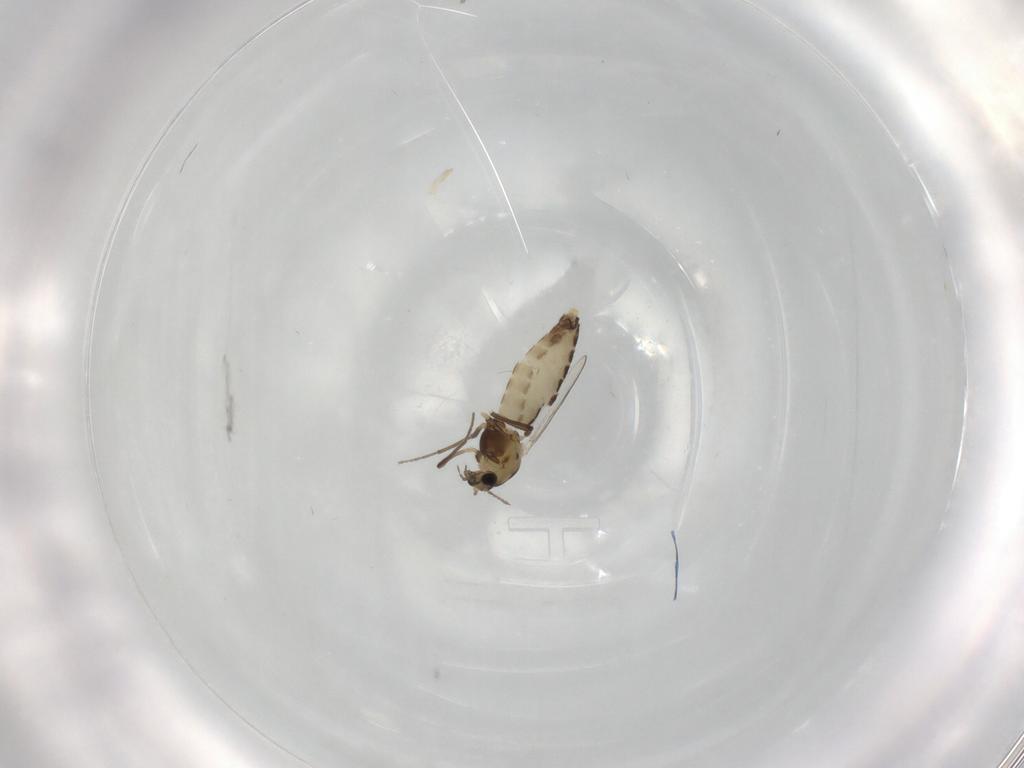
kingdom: Animalia
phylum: Arthropoda
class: Insecta
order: Diptera
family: Chironomidae
